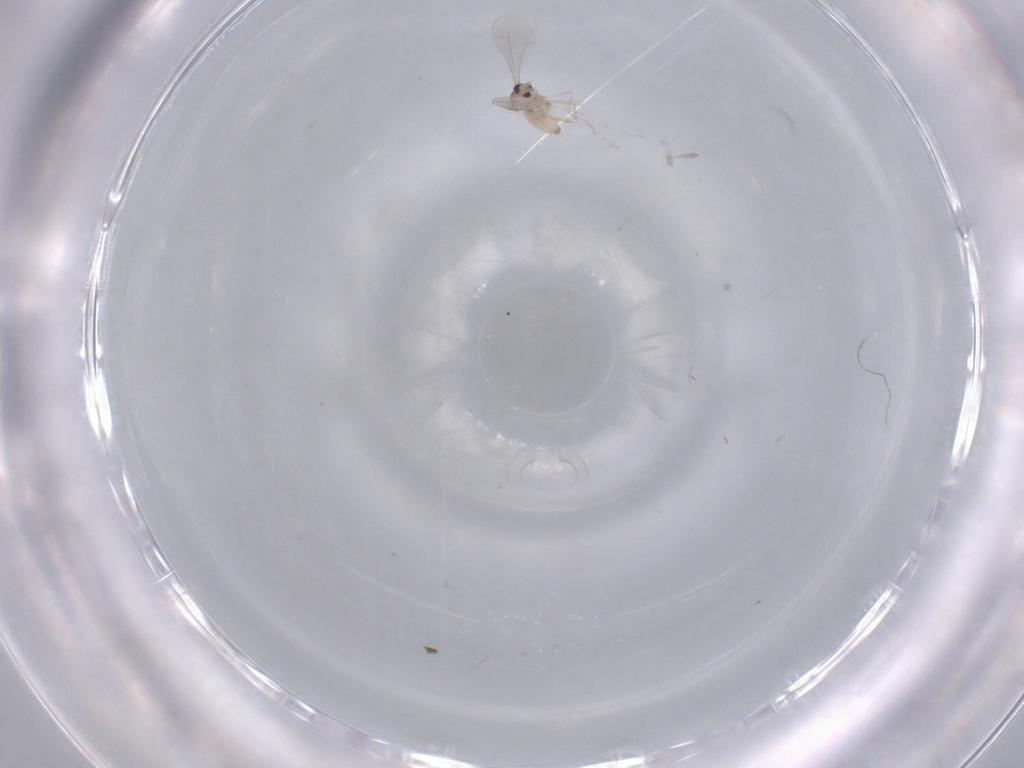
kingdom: Animalia
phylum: Arthropoda
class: Insecta
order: Diptera
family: Cecidomyiidae
